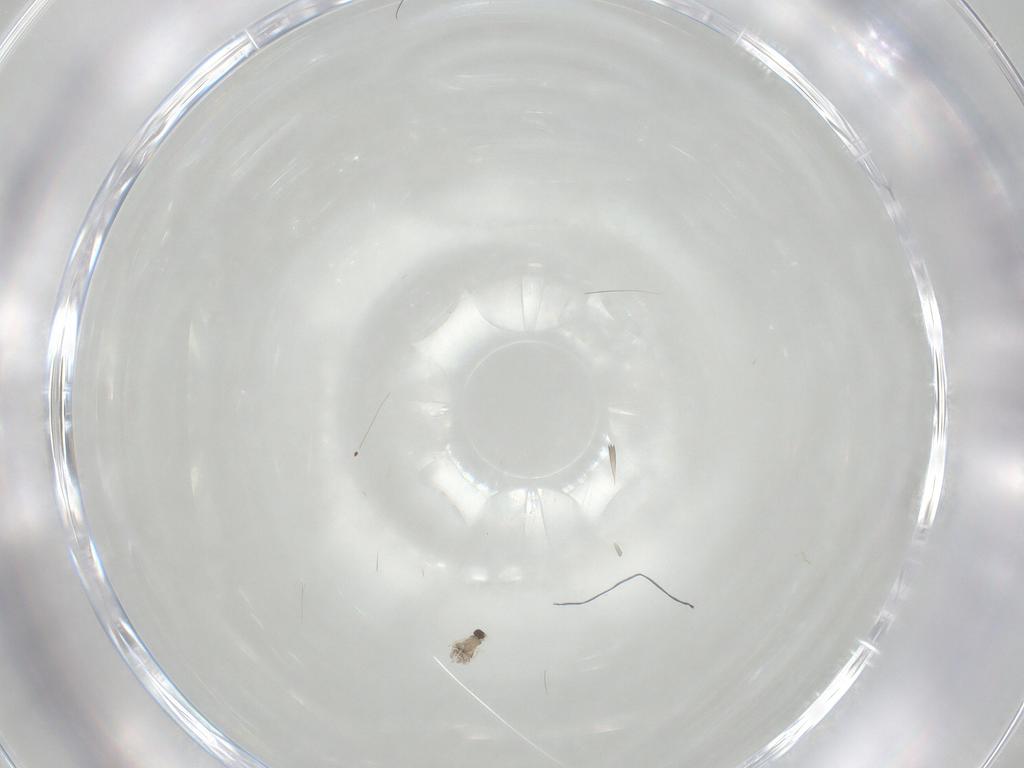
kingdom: Animalia
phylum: Arthropoda
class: Insecta
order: Hymenoptera
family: Mymaridae
